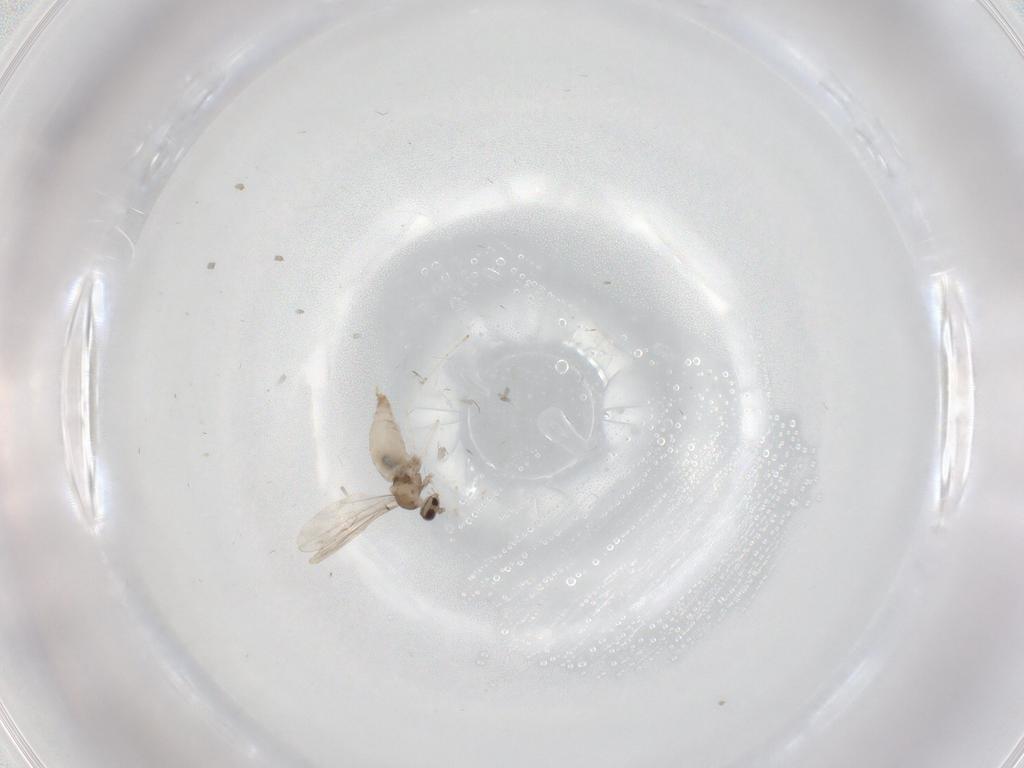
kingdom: Animalia
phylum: Arthropoda
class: Insecta
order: Diptera
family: Cecidomyiidae
